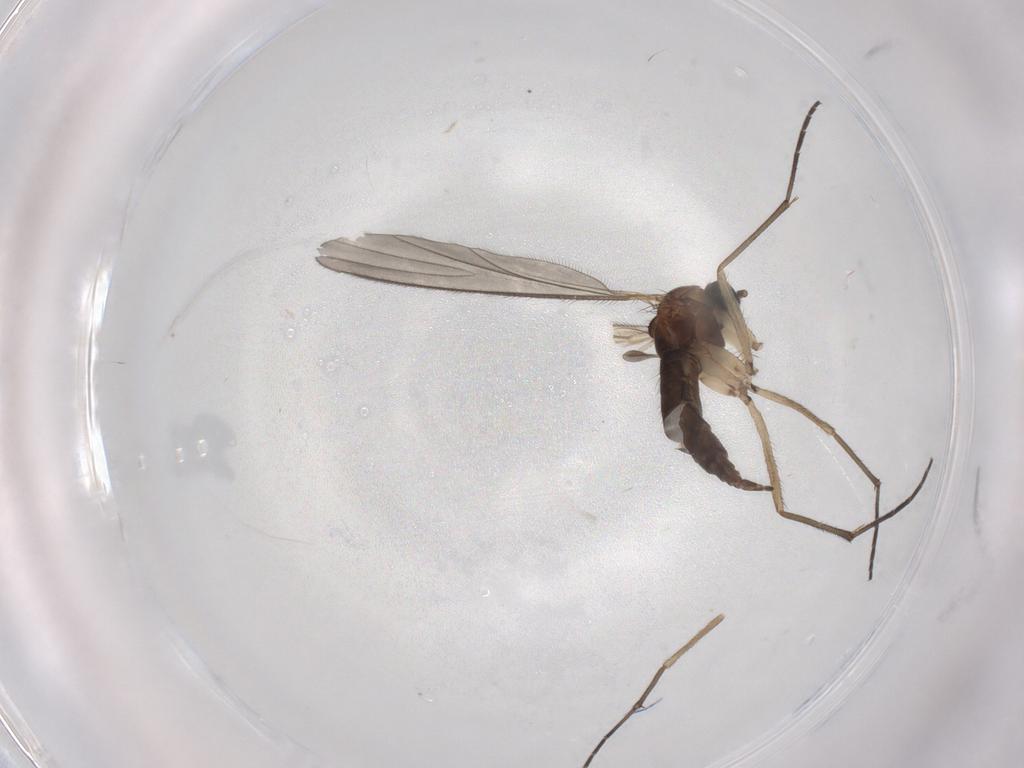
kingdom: Animalia
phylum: Arthropoda
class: Insecta
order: Diptera
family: Sciaridae
